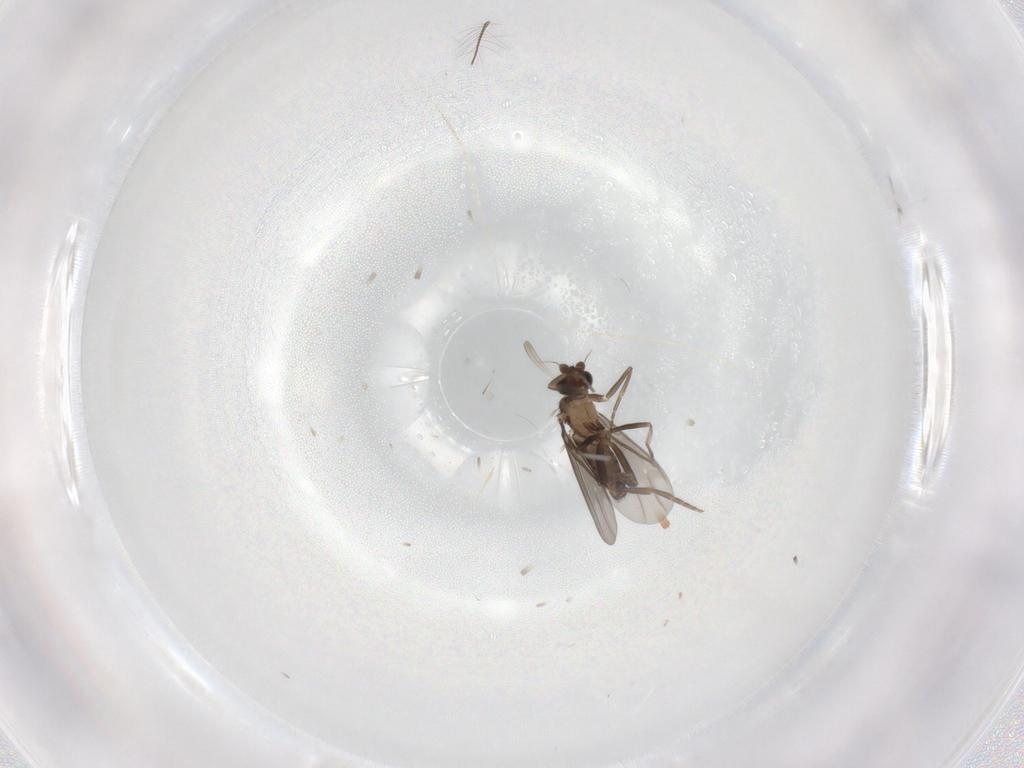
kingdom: Animalia
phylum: Arthropoda
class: Insecta
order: Diptera
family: Chironomidae
